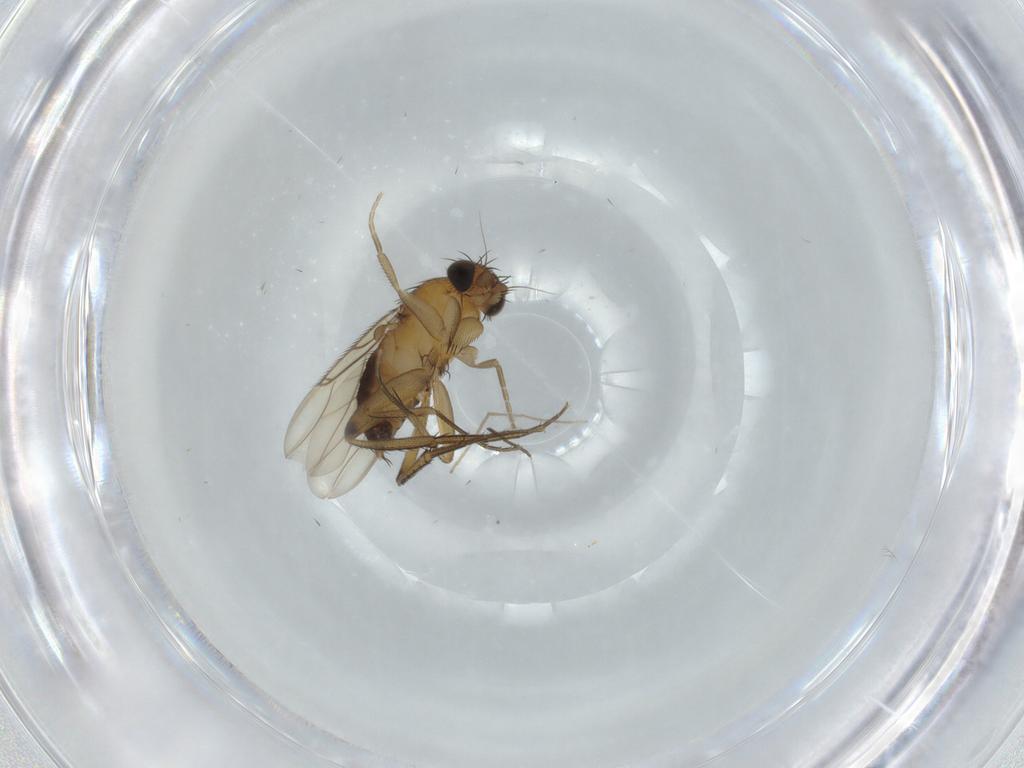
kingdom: Animalia
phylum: Arthropoda
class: Insecta
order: Diptera
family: Phoridae
